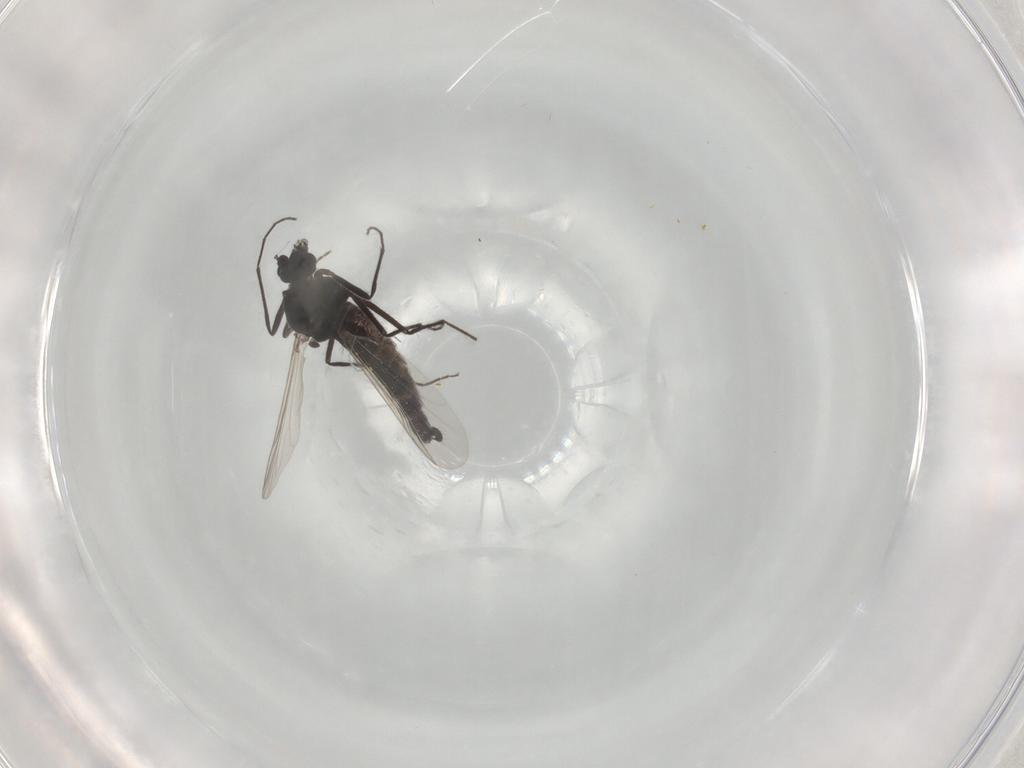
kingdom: Animalia
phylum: Arthropoda
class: Insecta
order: Diptera
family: Chironomidae
